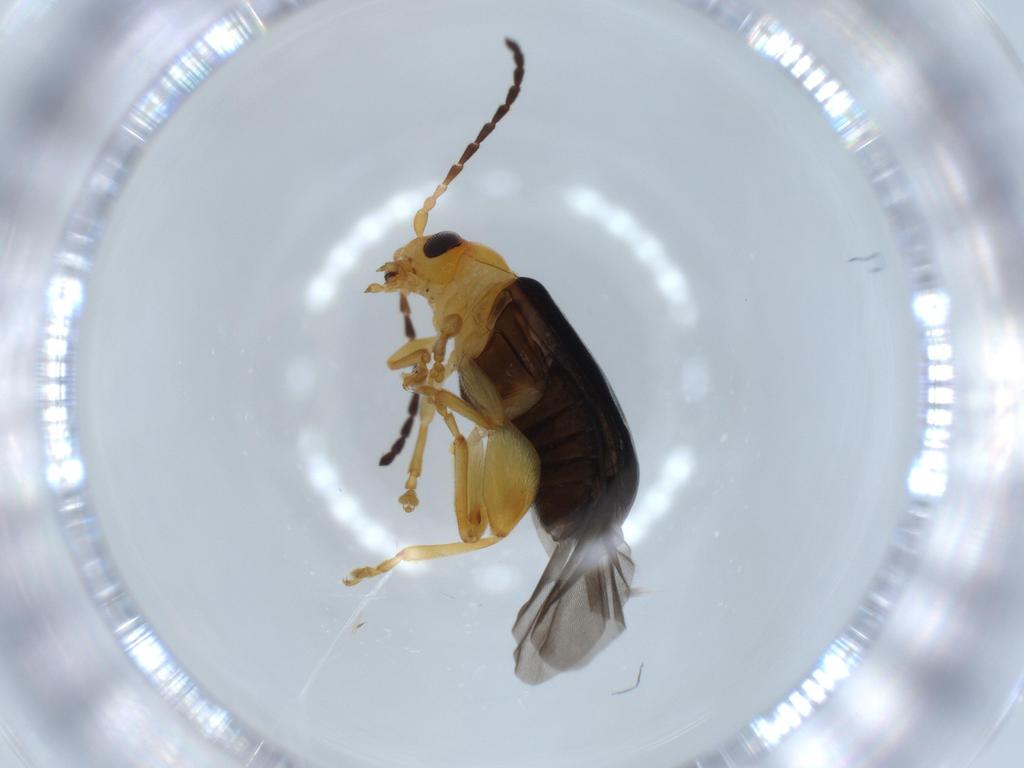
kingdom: Animalia
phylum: Arthropoda
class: Insecta
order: Coleoptera
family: Chrysomelidae
